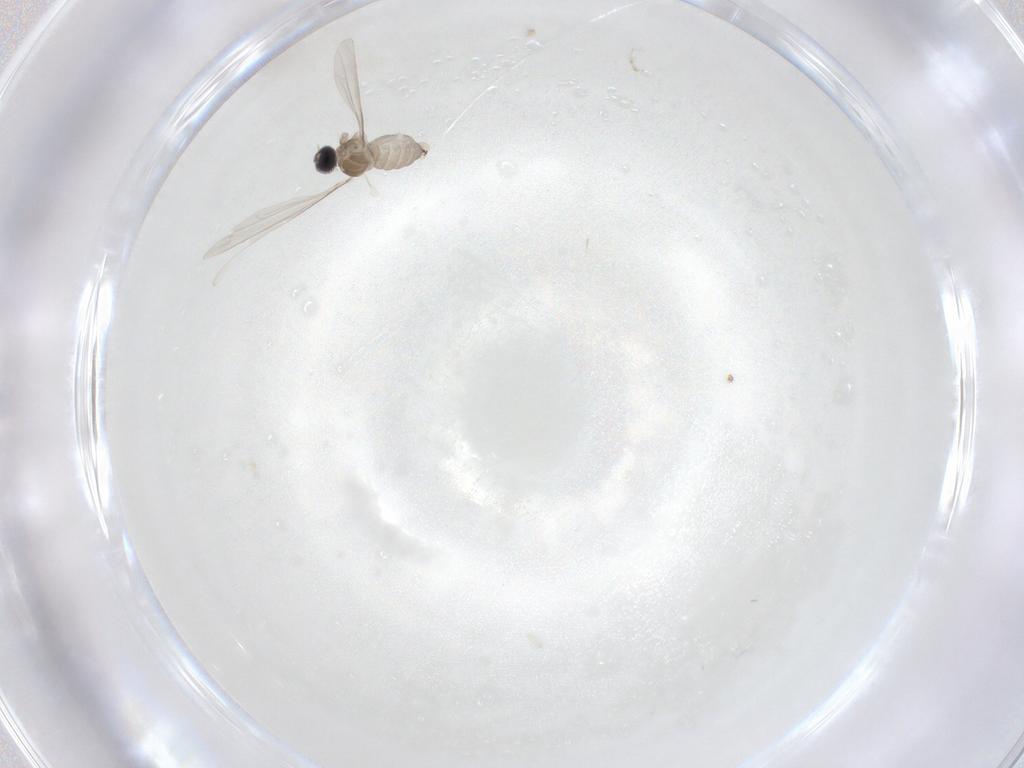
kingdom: Animalia
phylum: Arthropoda
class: Insecta
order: Diptera
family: Cecidomyiidae
